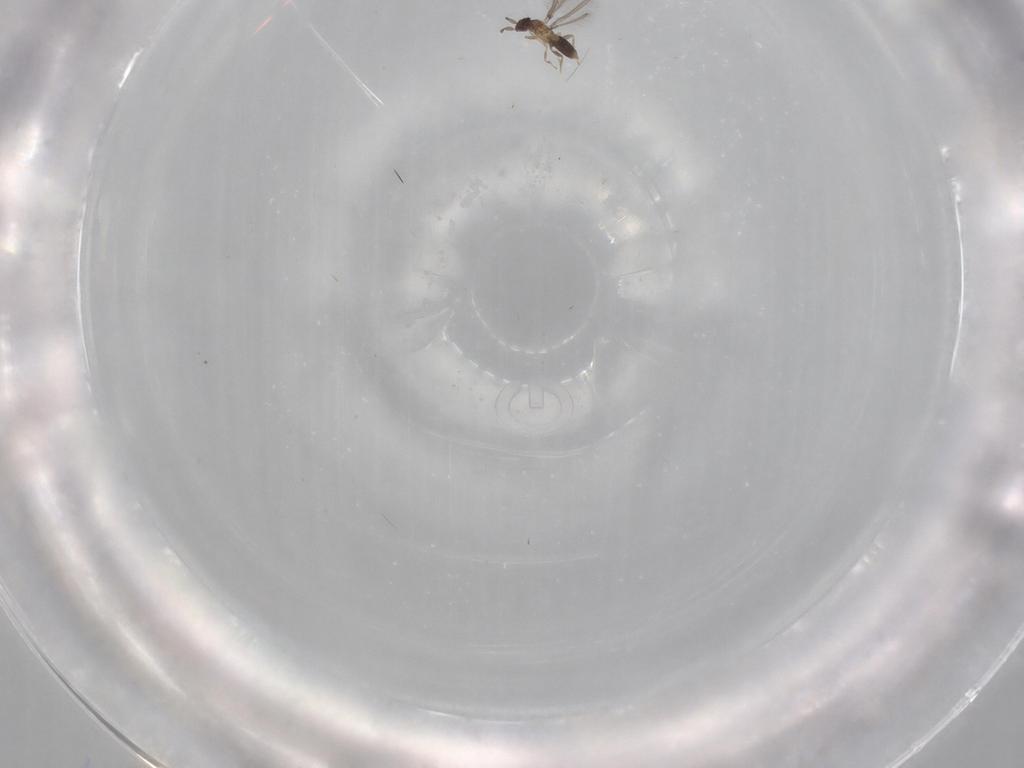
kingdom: Animalia
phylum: Arthropoda
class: Insecta
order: Hymenoptera
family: Mymaridae
